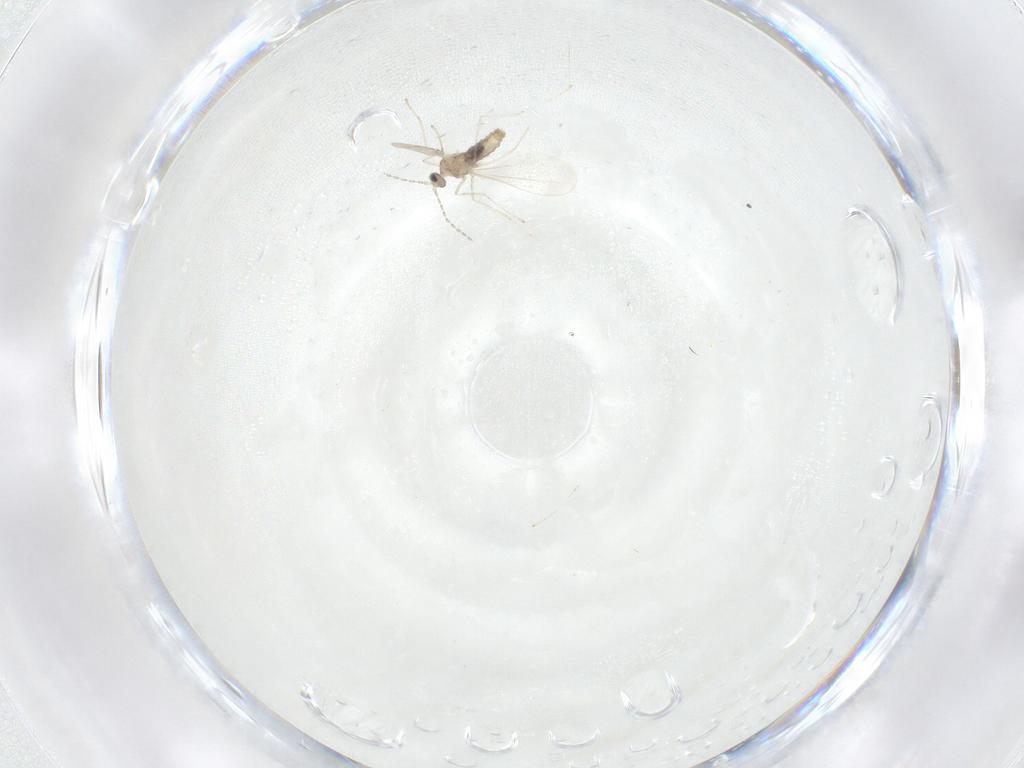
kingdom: Animalia
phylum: Arthropoda
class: Insecta
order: Diptera
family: Cecidomyiidae
